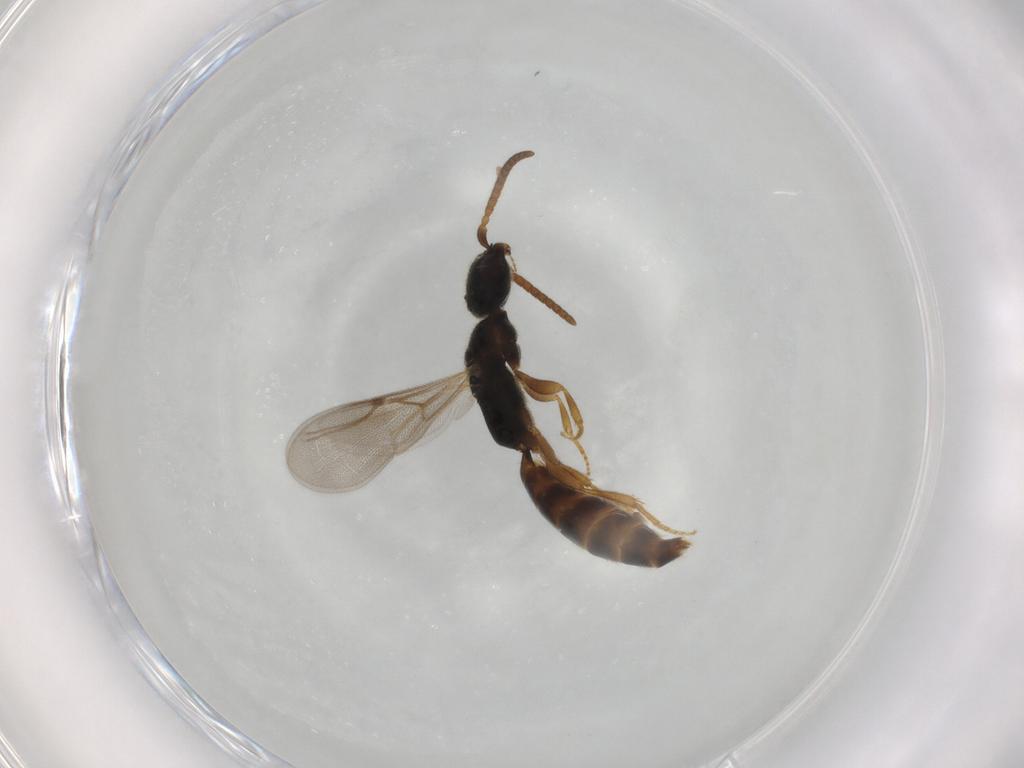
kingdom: Animalia
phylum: Arthropoda
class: Insecta
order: Hymenoptera
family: Bethylidae
